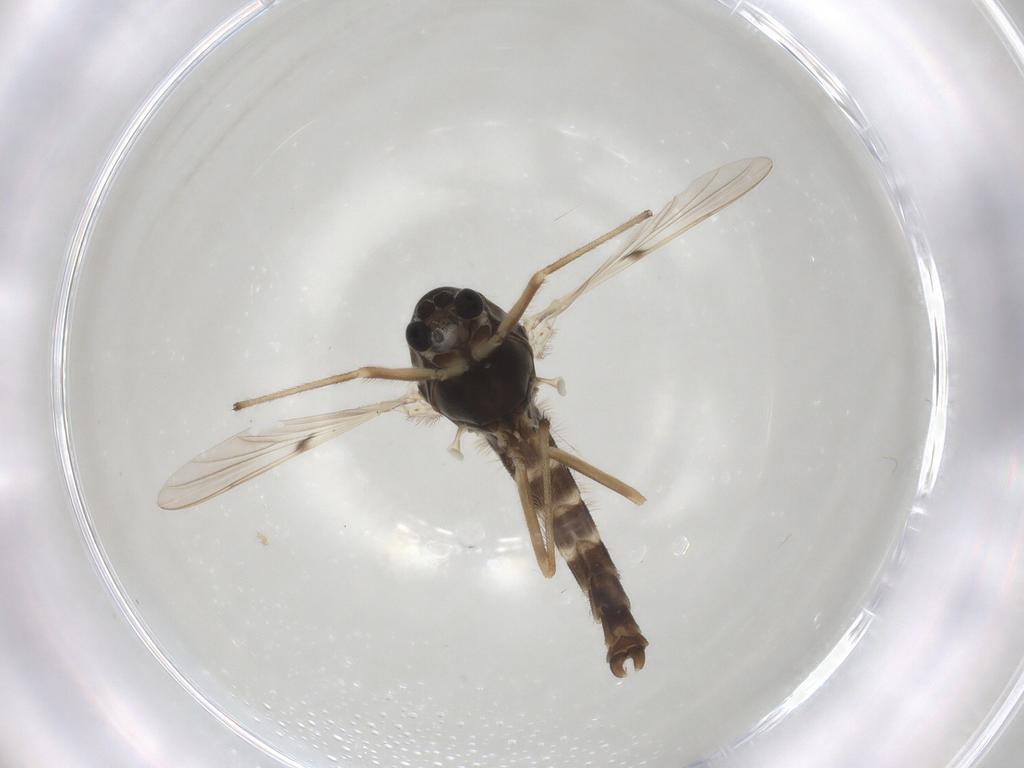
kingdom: Animalia
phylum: Arthropoda
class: Insecta
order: Diptera
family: Chironomidae
